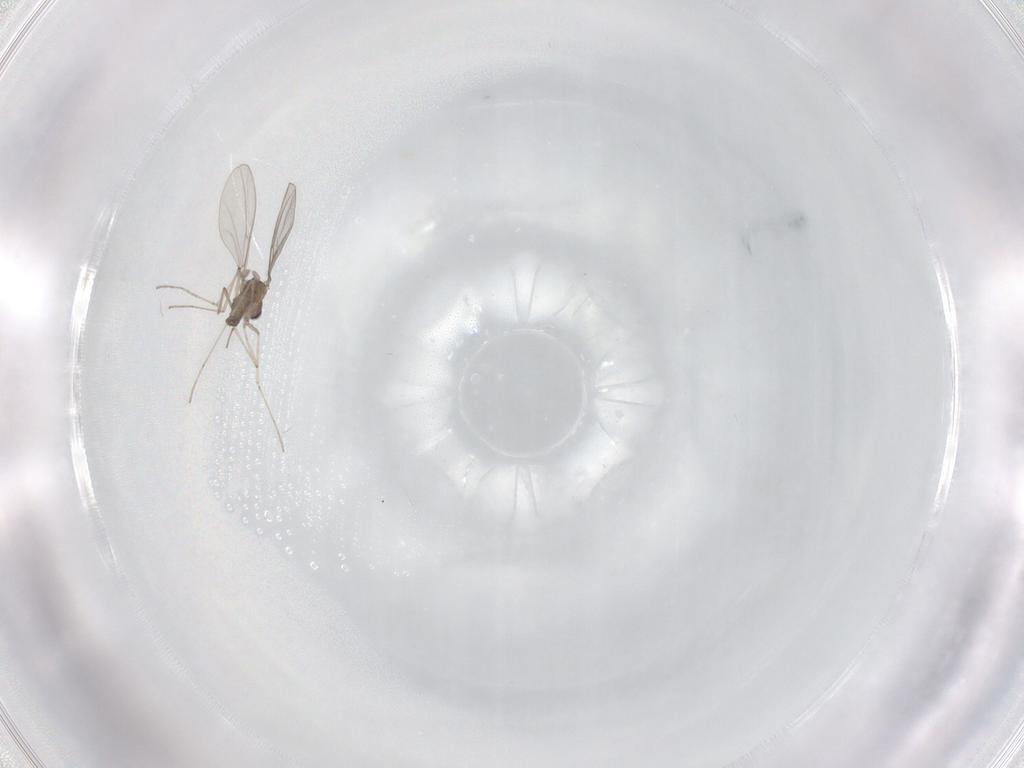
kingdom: Animalia
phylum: Arthropoda
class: Insecta
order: Diptera
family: Cecidomyiidae
